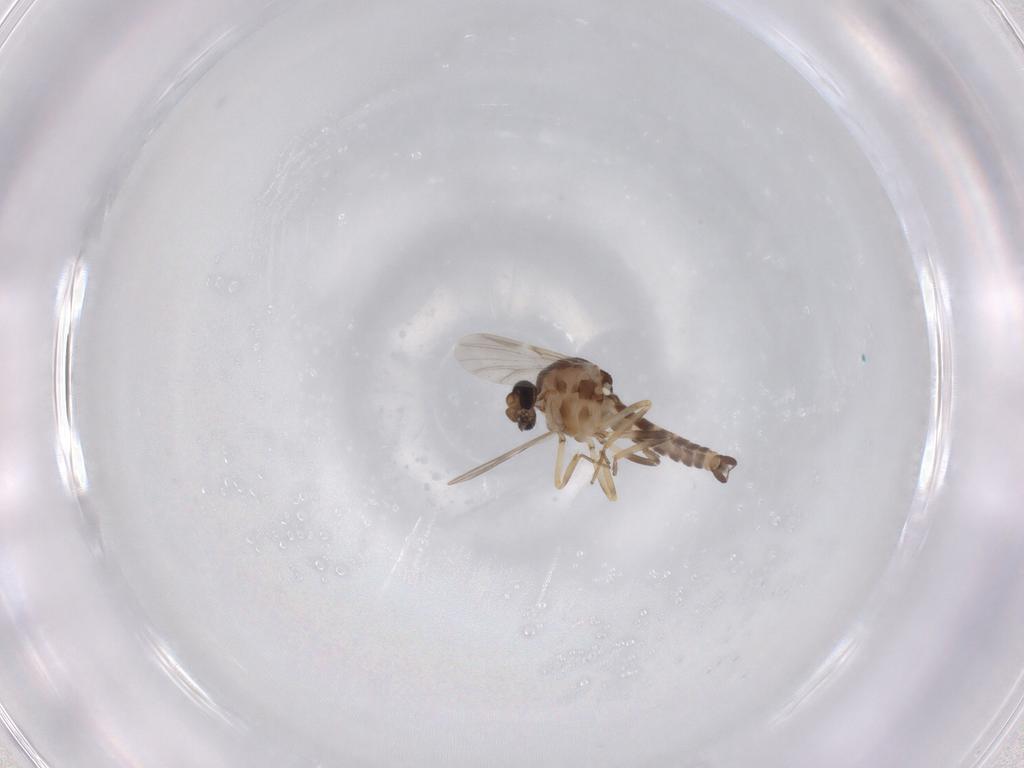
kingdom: Animalia
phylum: Arthropoda
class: Insecta
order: Diptera
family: Ceratopogonidae
